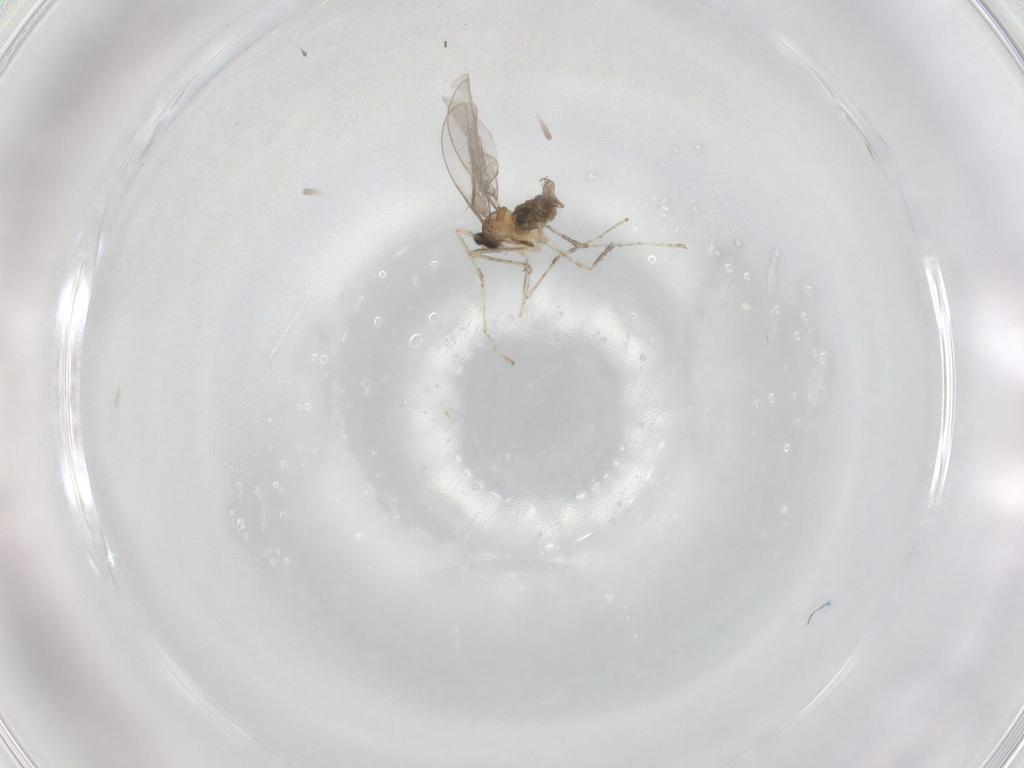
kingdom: Animalia
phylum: Arthropoda
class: Insecta
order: Diptera
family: Cecidomyiidae
